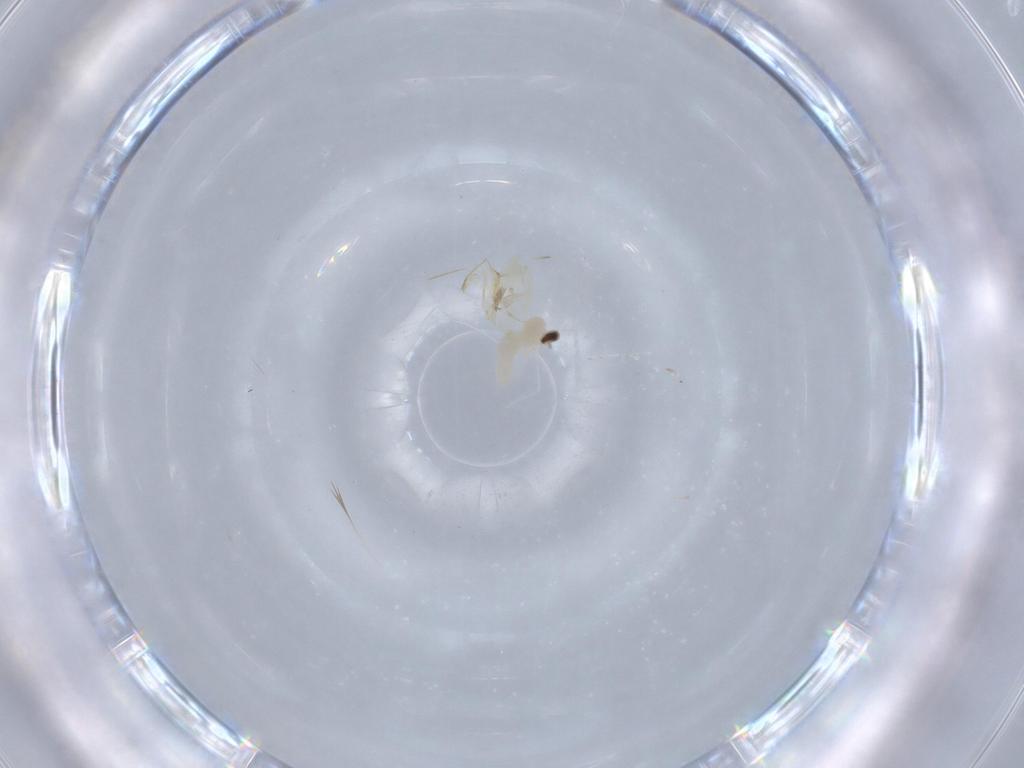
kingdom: Animalia
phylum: Arthropoda
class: Insecta
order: Diptera
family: Cecidomyiidae
